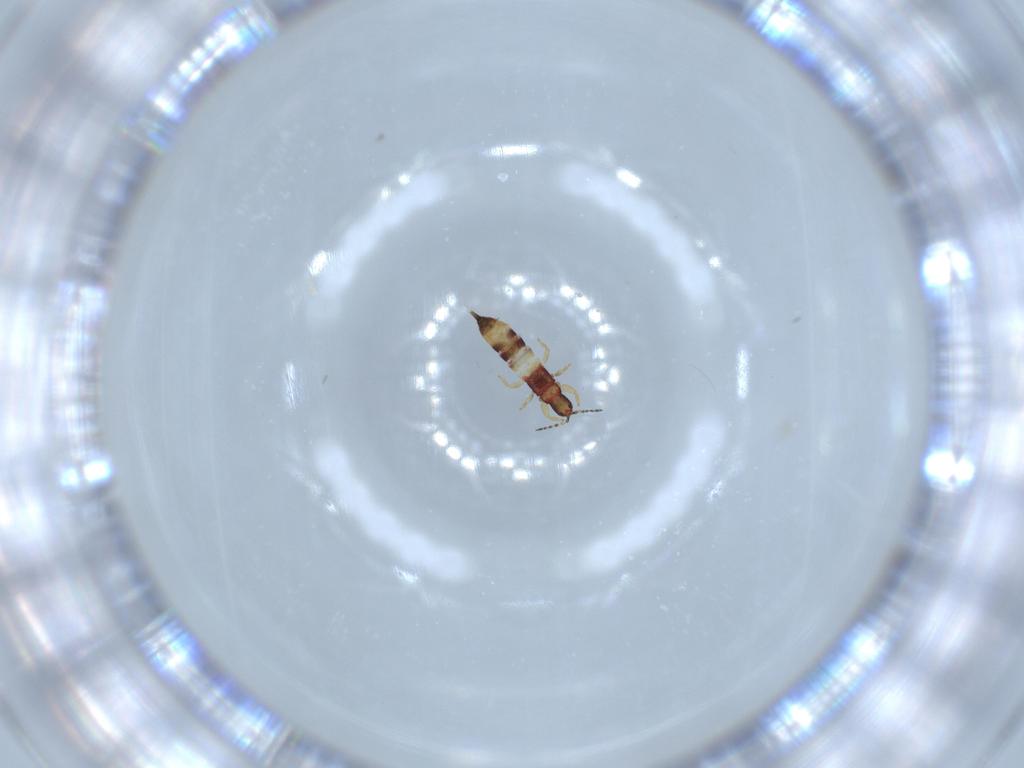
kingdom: Animalia
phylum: Arthropoda
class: Insecta
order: Thysanoptera
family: Phlaeothripidae
